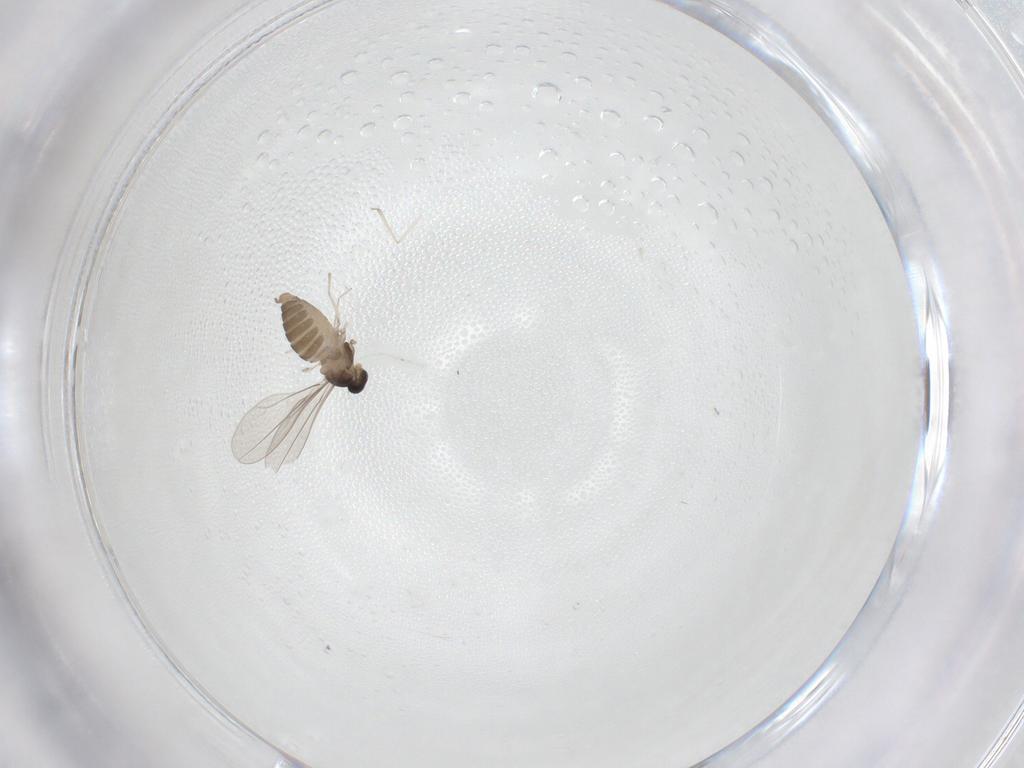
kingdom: Animalia
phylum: Arthropoda
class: Insecta
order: Diptera
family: Cecidomyiidae
